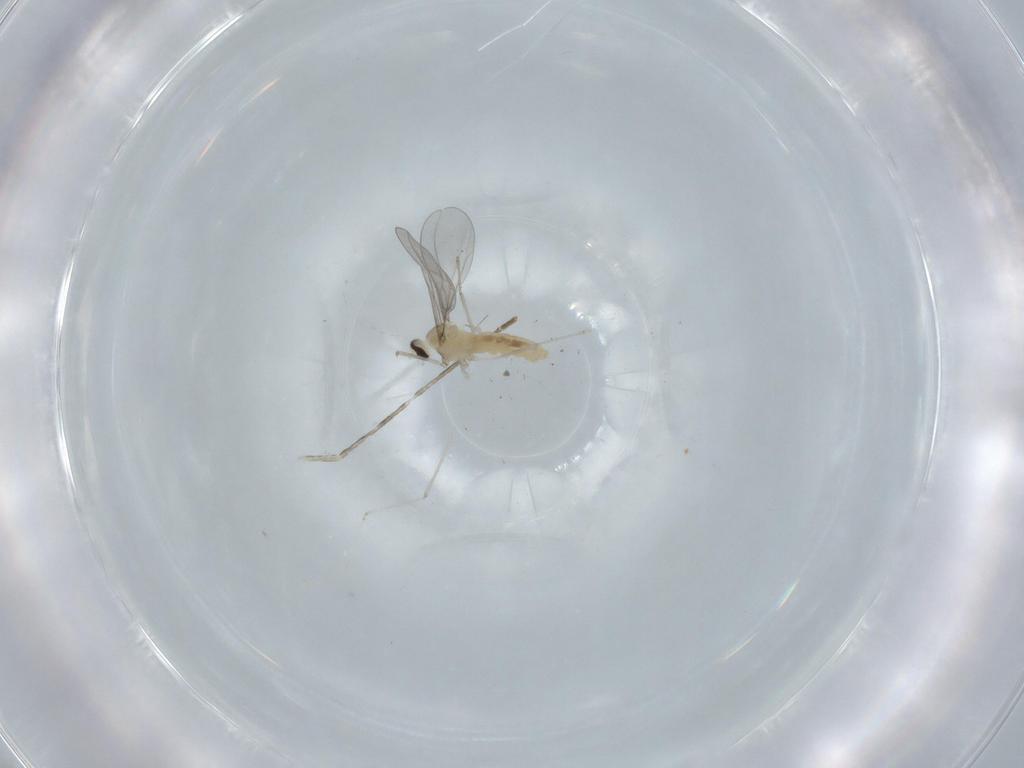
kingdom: Animalia
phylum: Arthropoda
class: Insecta
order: Diptera
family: Cecidomyiidae
